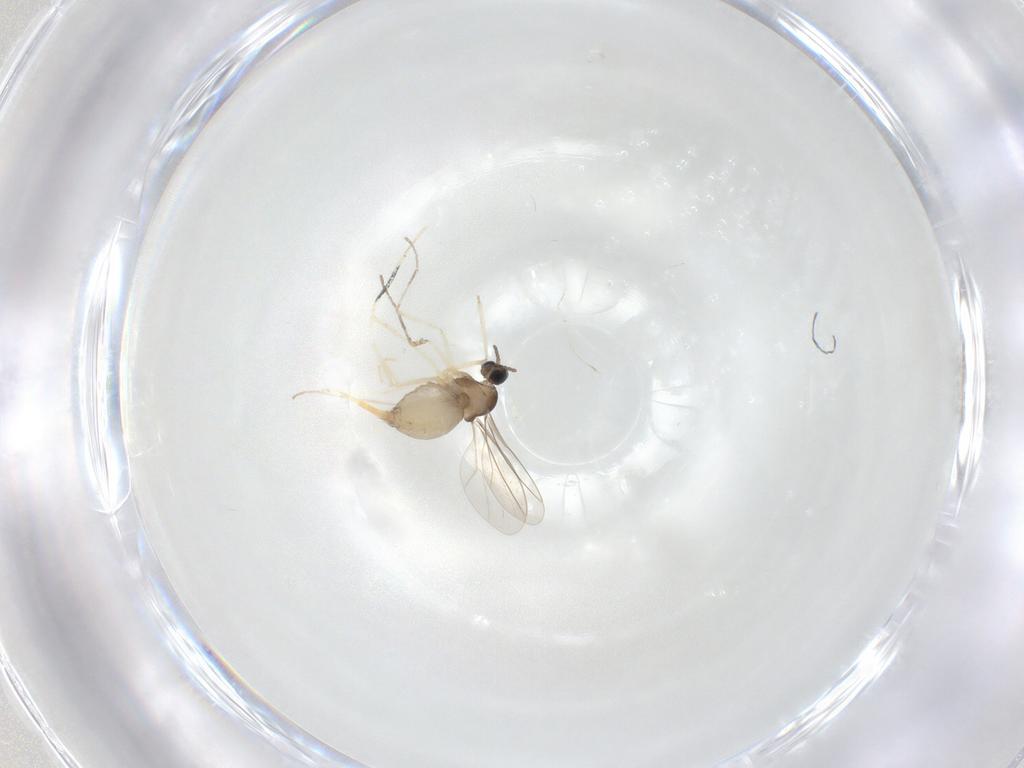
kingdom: Animalia
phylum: Arthropoda
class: Insecta
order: Diptera
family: Cecidomyiidae
